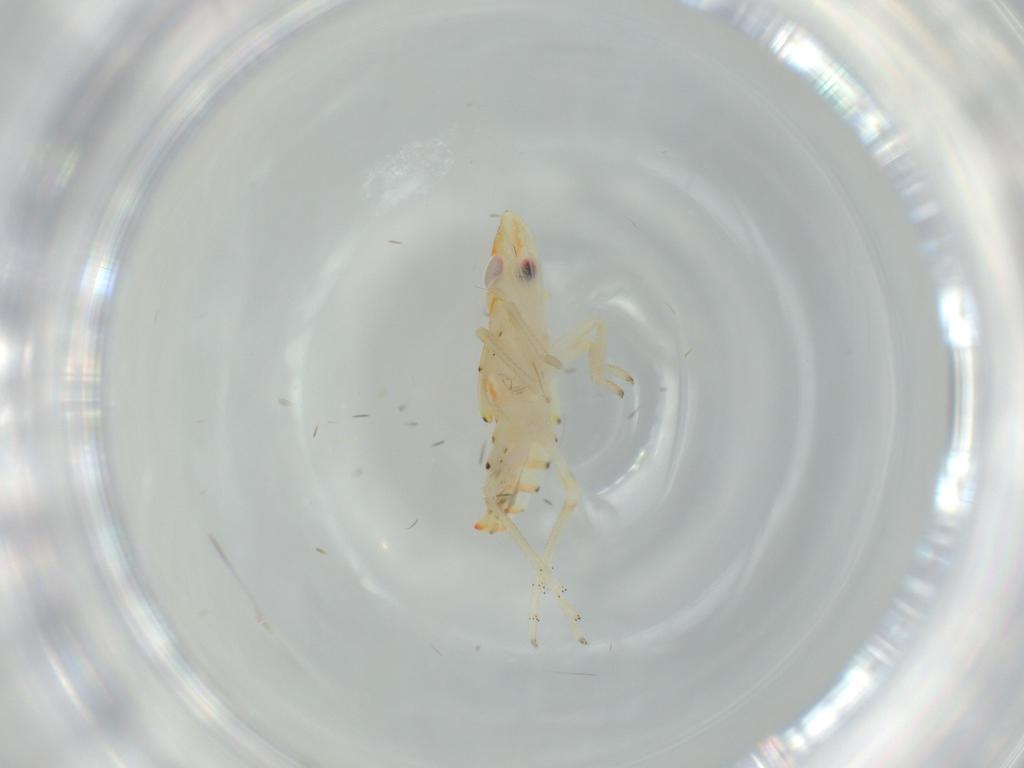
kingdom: Animalia
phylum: Arthropoda
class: Insecta
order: Hemiptera
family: Tropiduchidae
